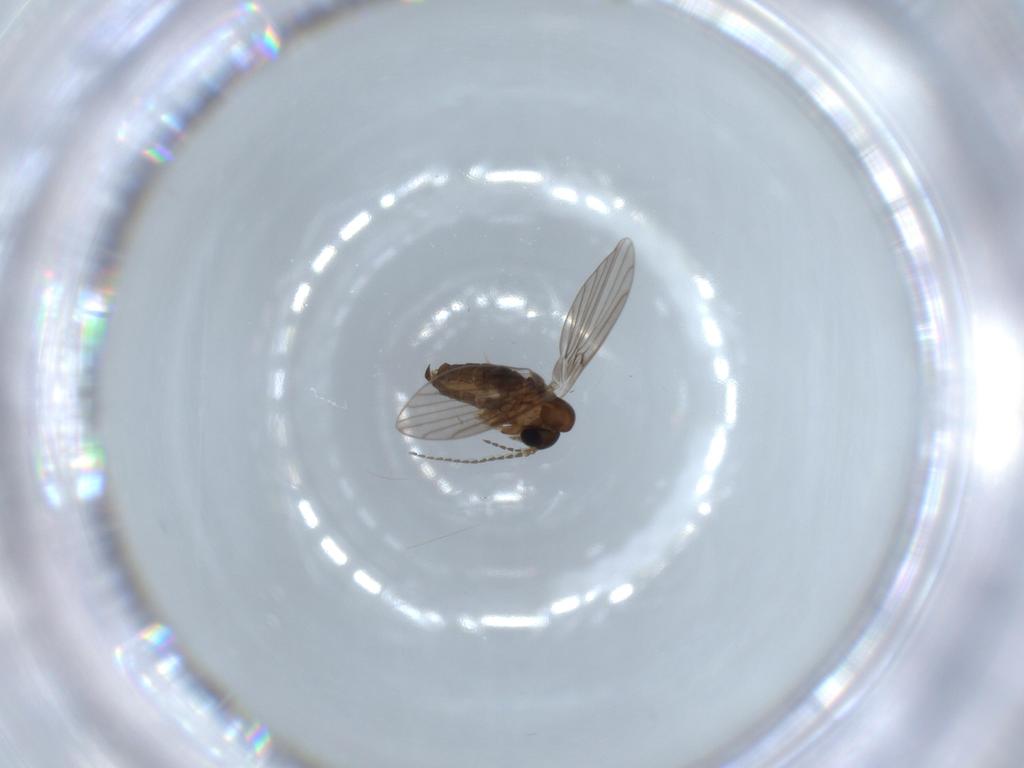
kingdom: Animalia
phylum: Arthropoda
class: Insecta
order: Diptera
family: Psychodidae
